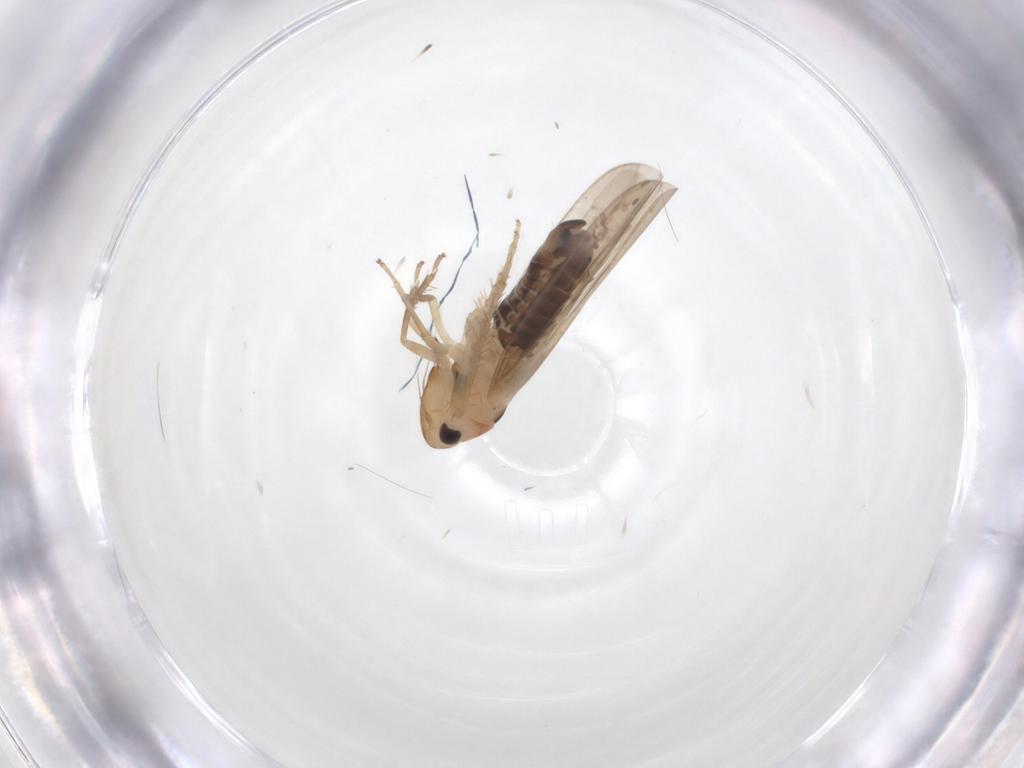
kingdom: Animalia
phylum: Arthropoda
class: Insecta
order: Hemiptera
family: Cicadellidae
